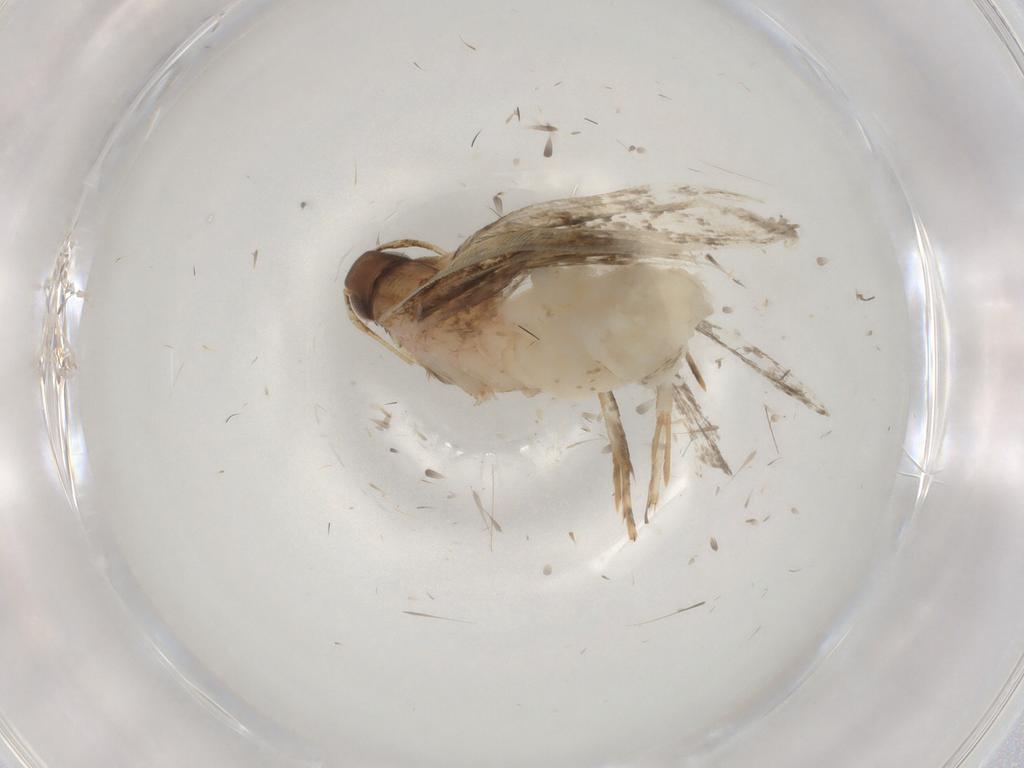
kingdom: Animalia
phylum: Arthropoda
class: Insecta
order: Lepidoptera
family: Gelechiidae
